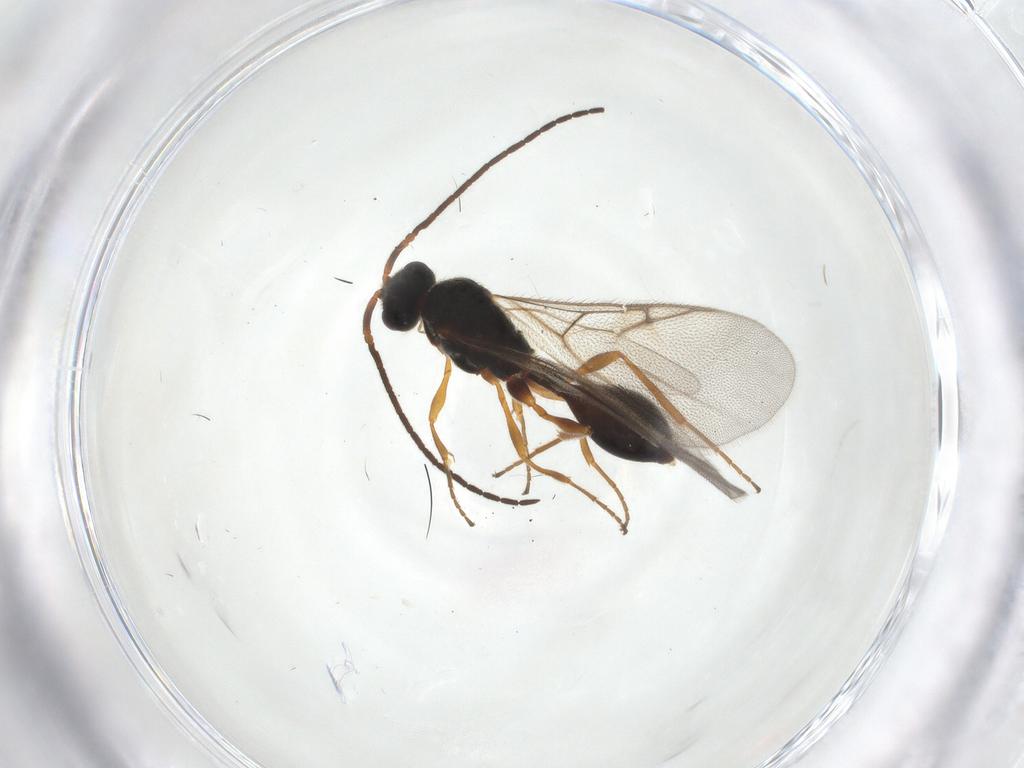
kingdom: Animalia
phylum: Arthropoda
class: Insecta
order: Hymenoptera
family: Diapriidae
